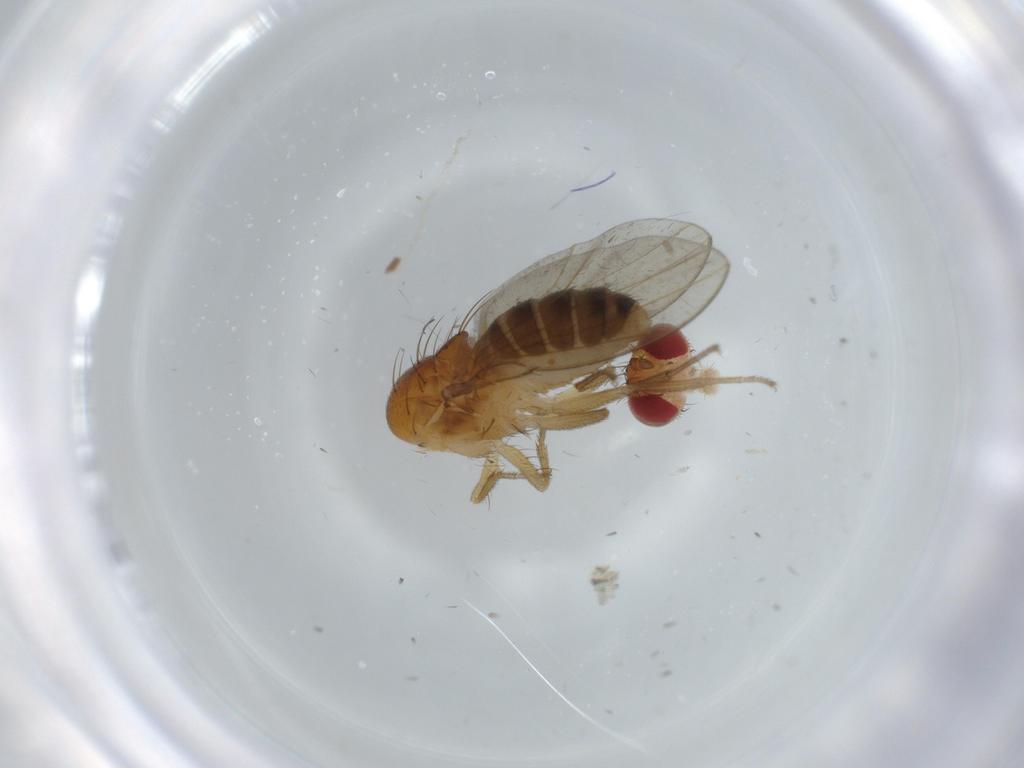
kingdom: Animalia
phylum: Arthropoda
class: Insecta
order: Diptera
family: Drosophilidae
